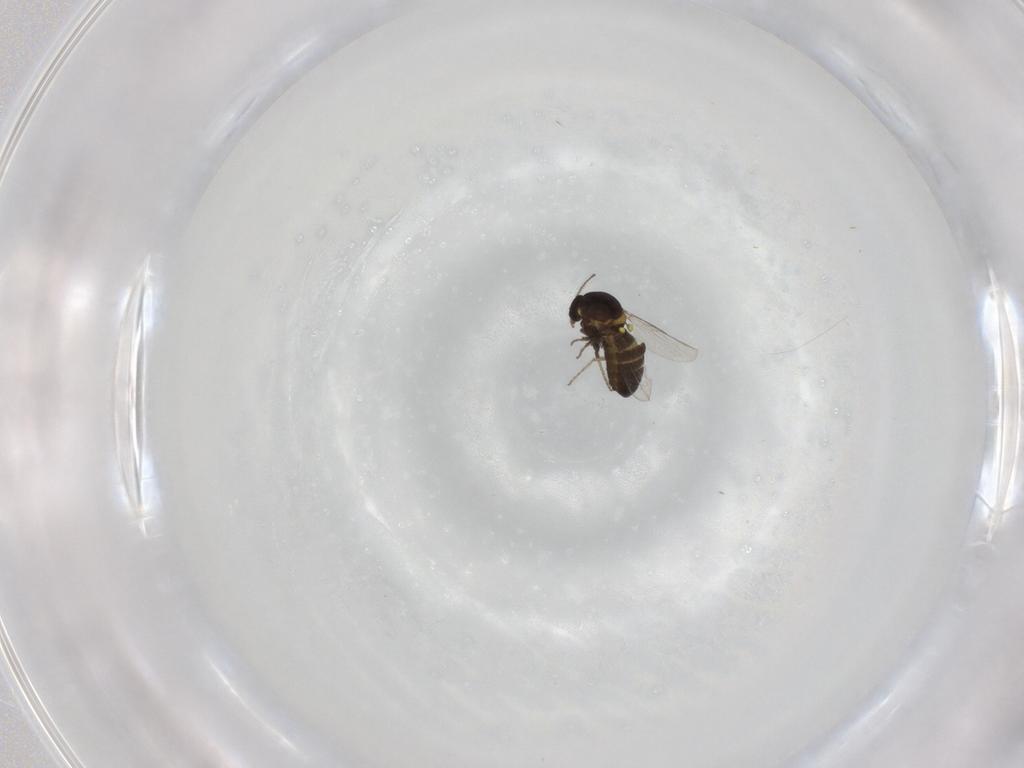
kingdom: Animalia
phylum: Arthropoda
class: Insecta
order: Diptera
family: Ceratopogonidae
